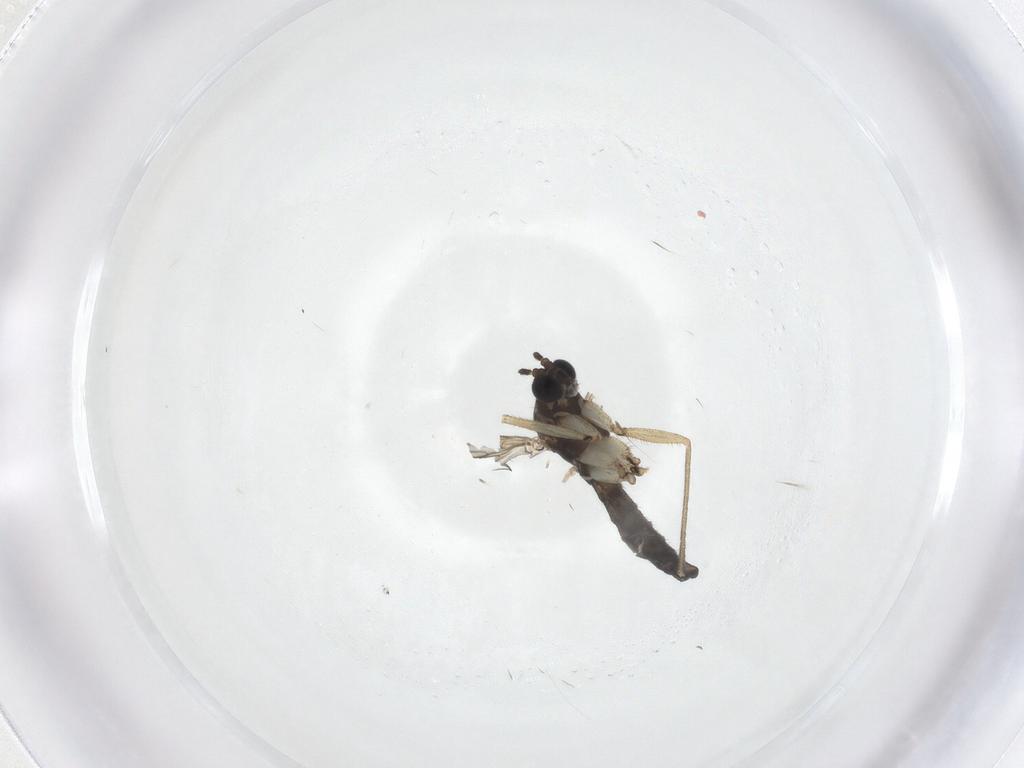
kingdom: Animalia
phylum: Arthropoda
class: Insecta
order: Diptera
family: Sciaridae
